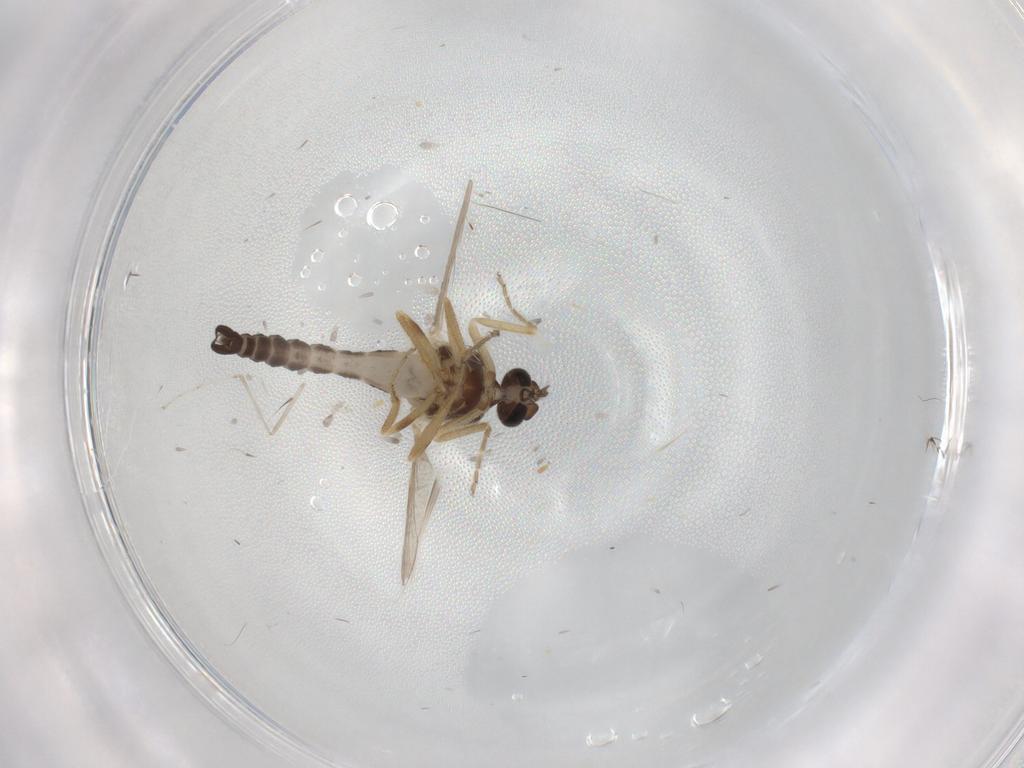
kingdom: Animalia
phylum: Arthropoda
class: Insecta
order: Diptera
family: Ceratopogonidae
